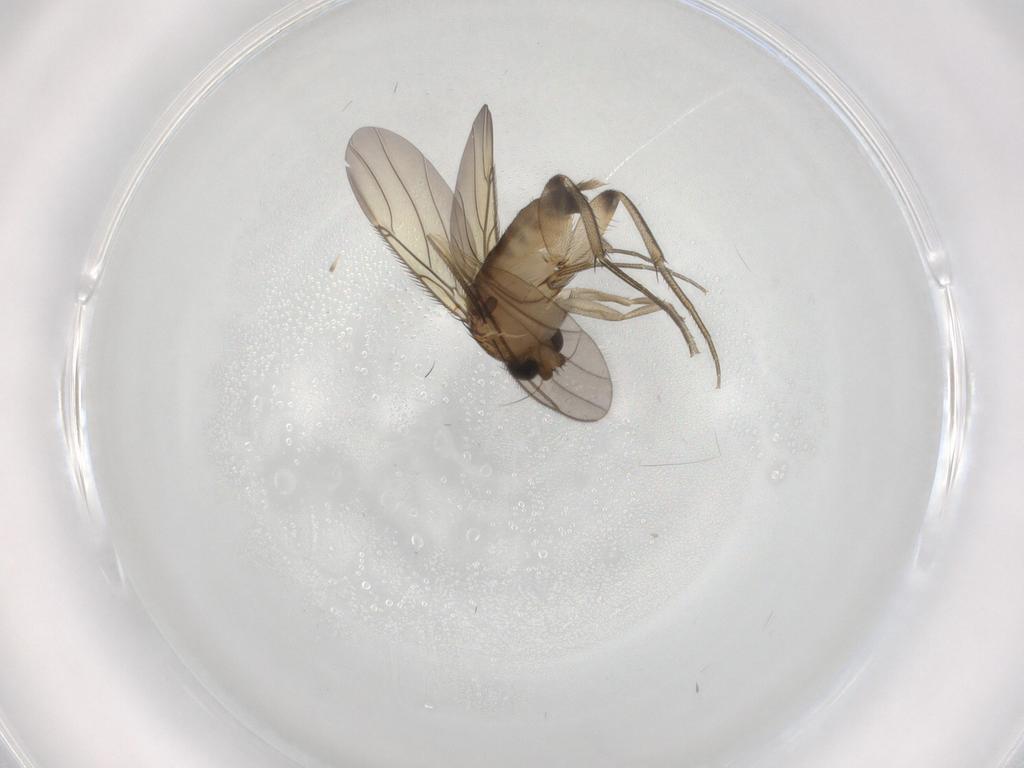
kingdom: Animalia
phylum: Arthropoda
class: Insecta
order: Diptera
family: Phoridae
